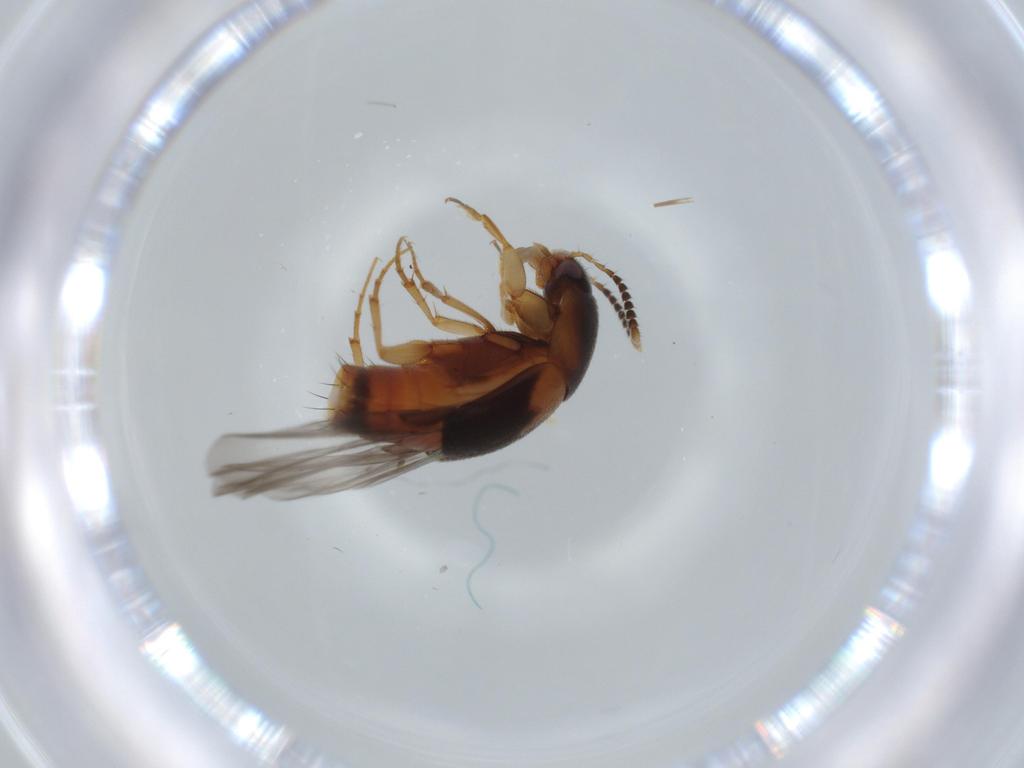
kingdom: Animalia
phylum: Arthropoda
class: Insecta
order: Coleoptera
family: Staphylinidae
